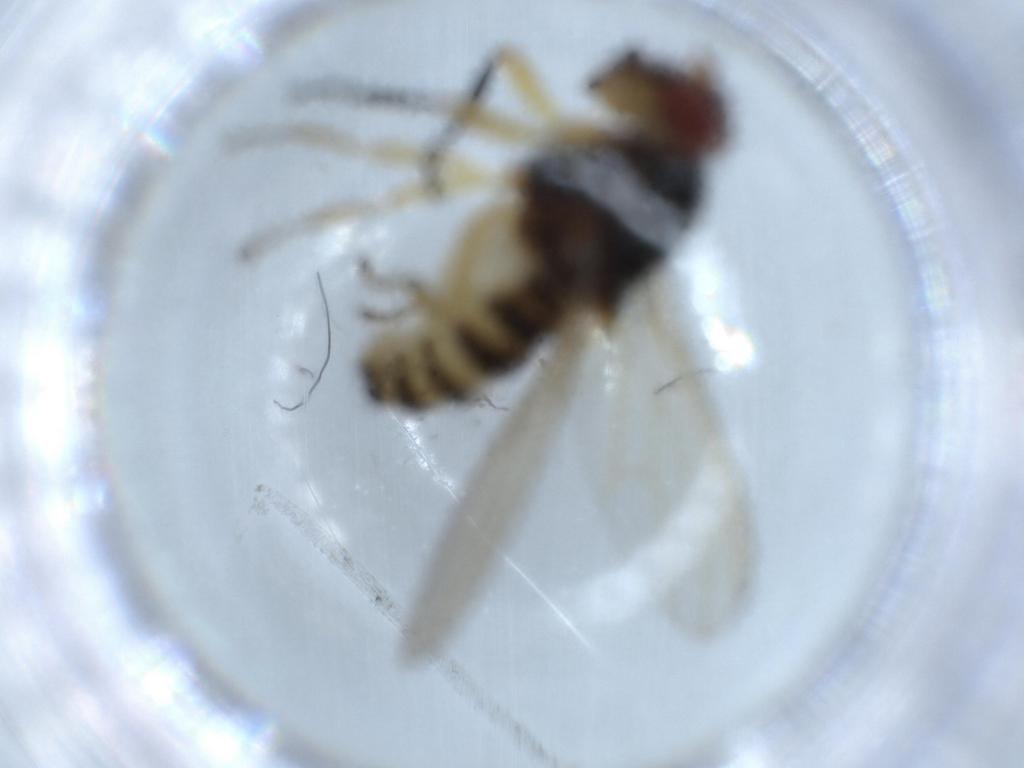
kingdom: Animalia
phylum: Arthropoda
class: Insecta
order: Diptera
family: Lauxaniidae
